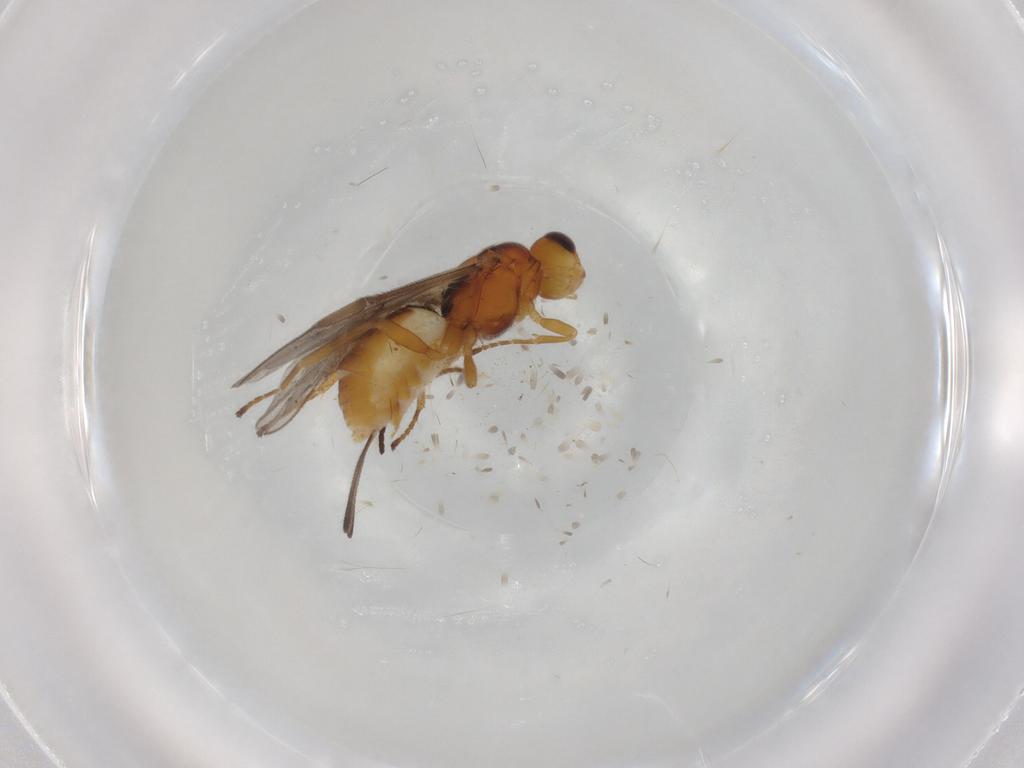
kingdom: Animalia
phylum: Arthropoda
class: Insecta
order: Hymenoptera
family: Braconidae
